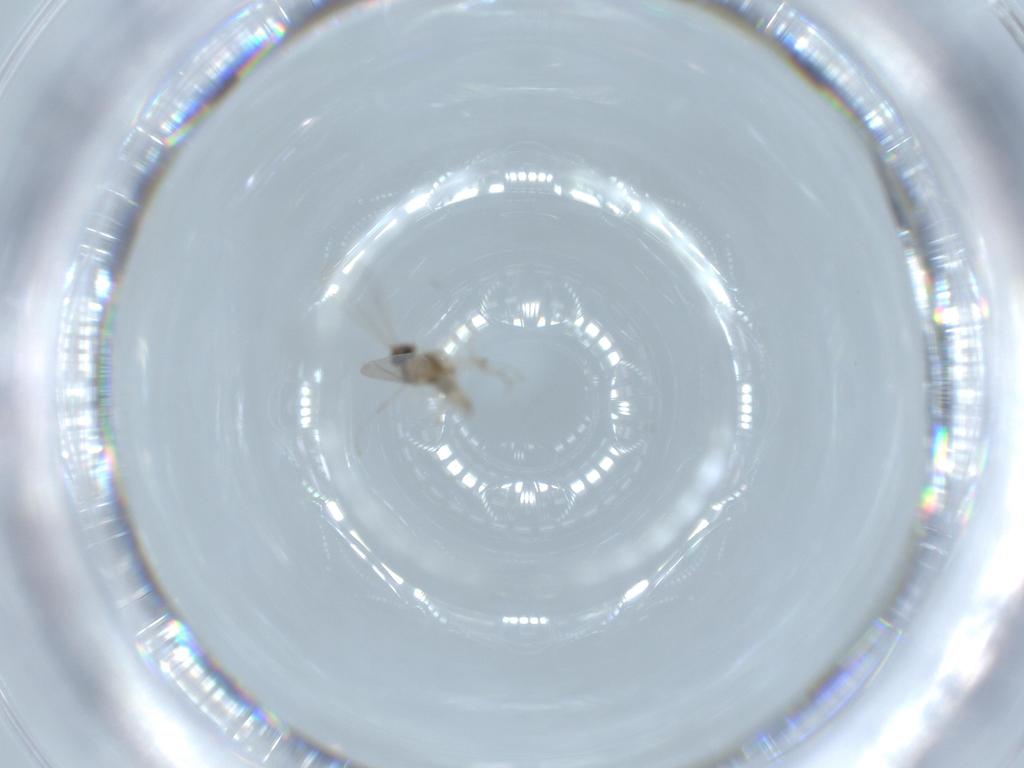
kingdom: Animalia
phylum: Arthropoda
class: Insecta
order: Diptera
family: Cecidomyiidae
